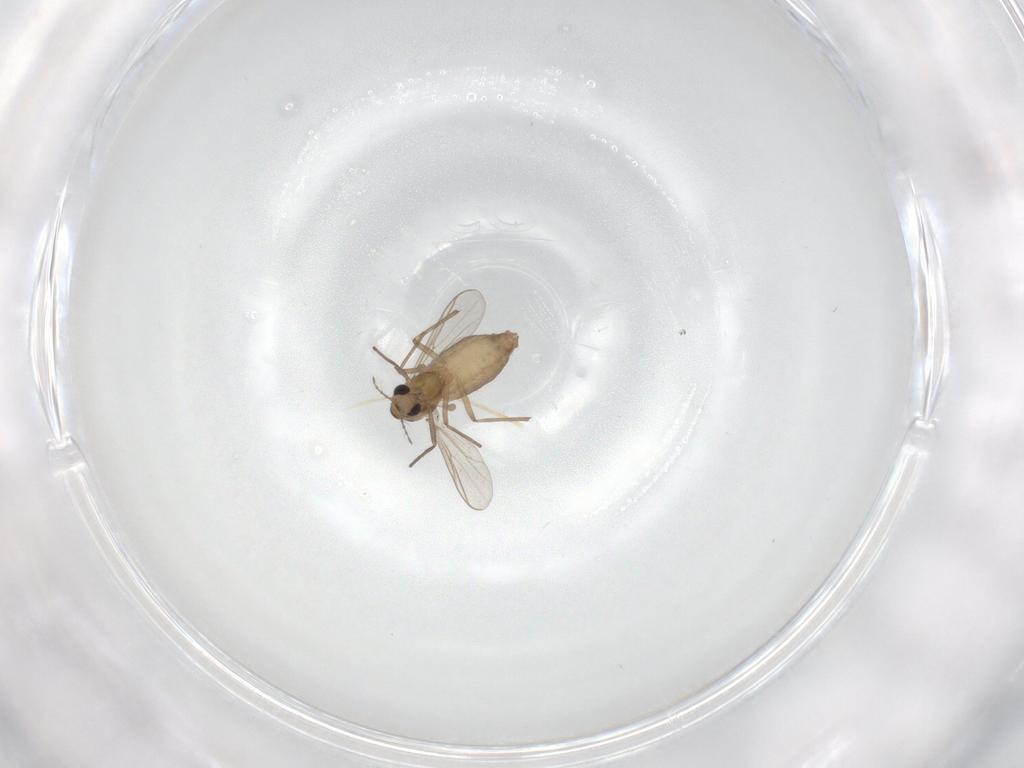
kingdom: Animalia
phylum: Arthropoda
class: Insecta
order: Diptera
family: Chironomidae
